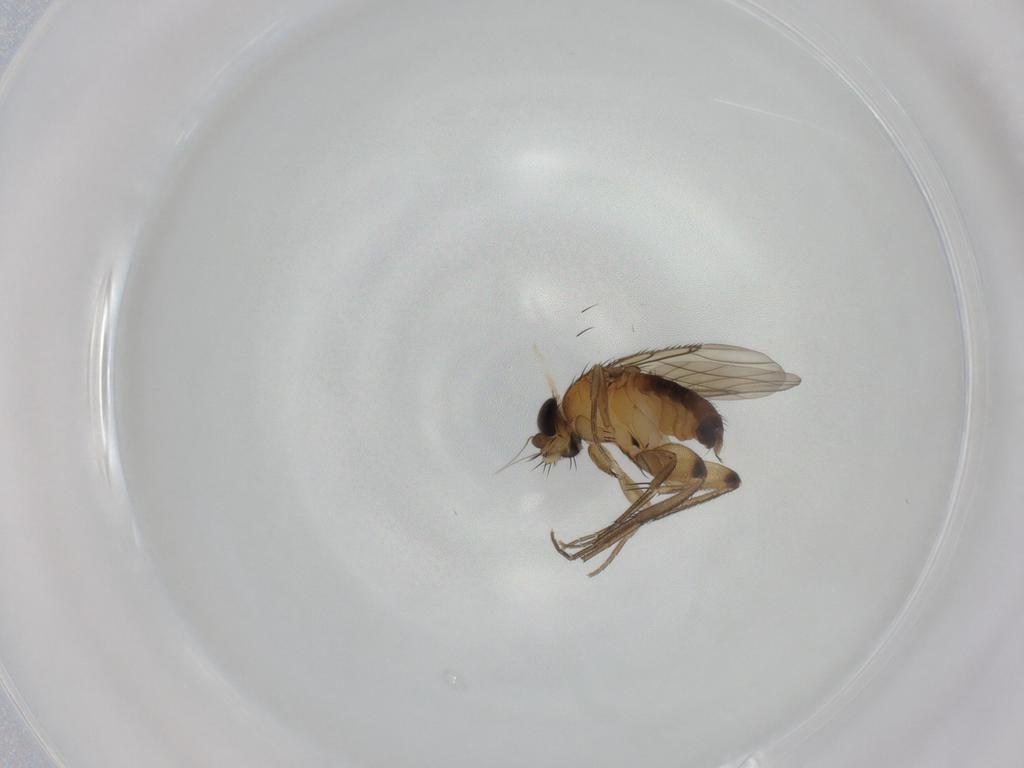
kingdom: Animalia
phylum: Arthropoda
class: Insecta
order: Diptera
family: Phoridae
